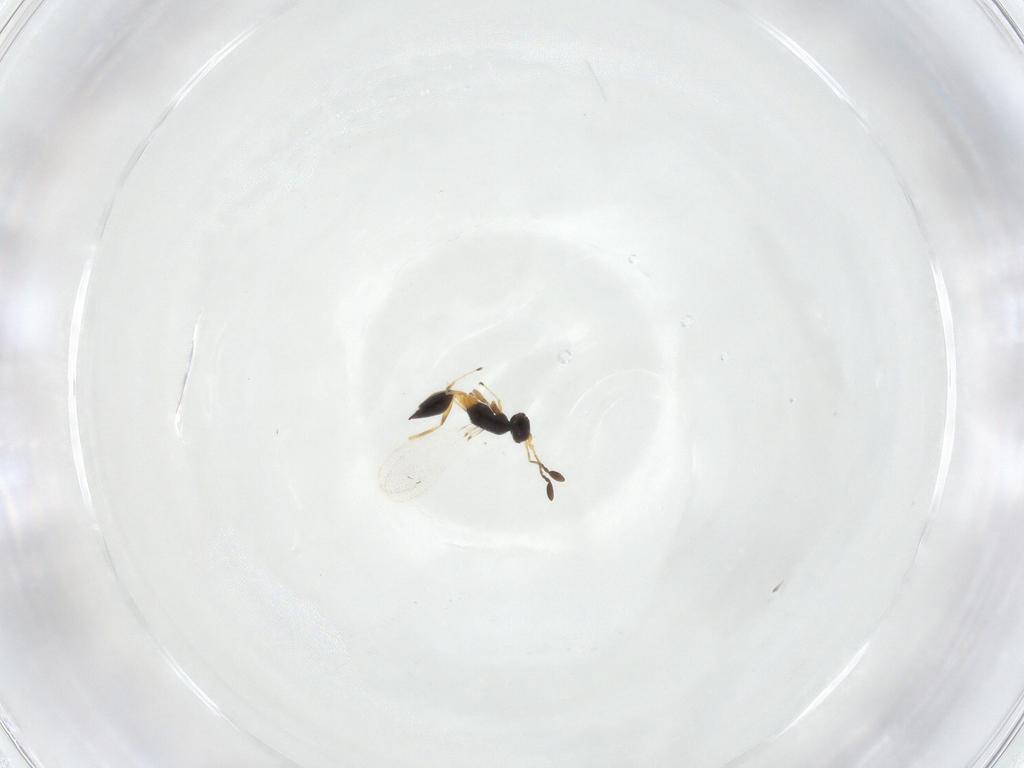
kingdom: Animalia
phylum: Arthropoda
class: Insecta
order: Hymenoptera
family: Mymaridae
